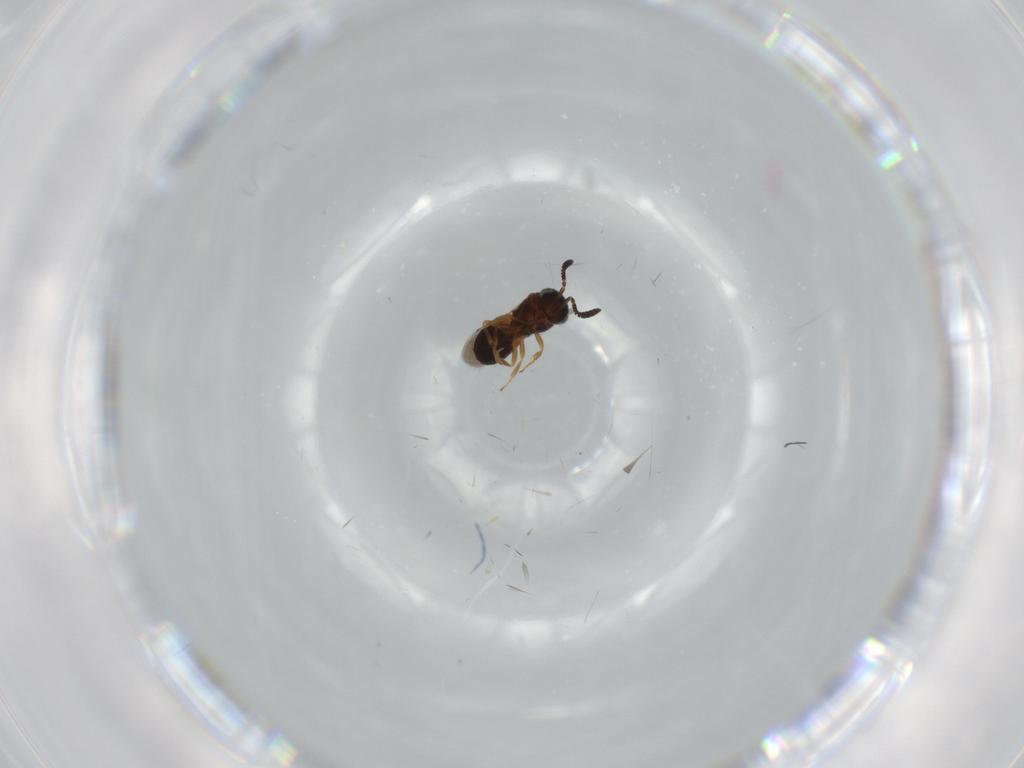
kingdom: Animalia
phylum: Arthropoda
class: Insecta
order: Hymenoptera
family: Scelionidae
